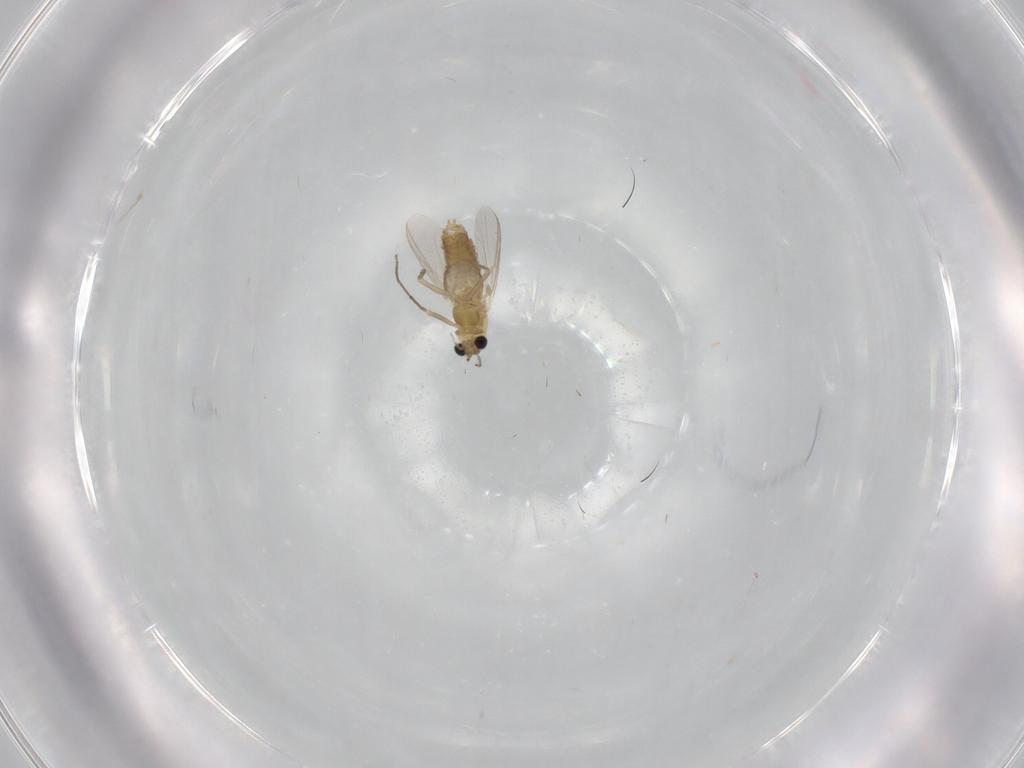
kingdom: Animalia
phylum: Arthropoda
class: Insecta
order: Diptera
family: Chironomidae
